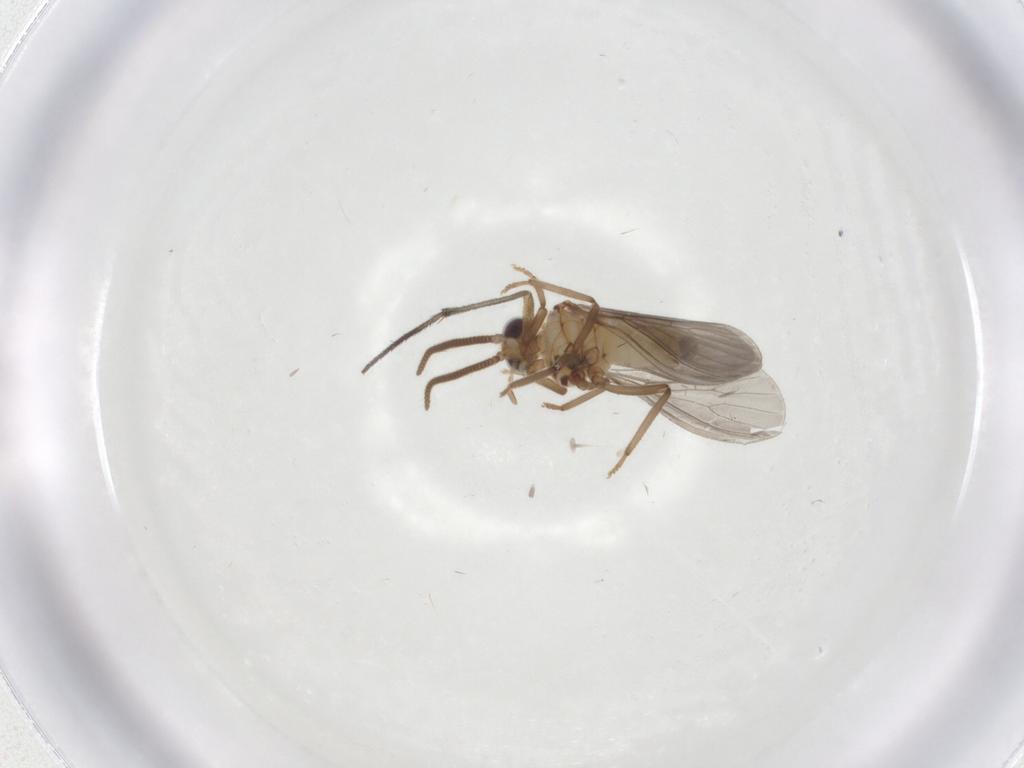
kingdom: Animalia
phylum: Arthropoda
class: Insecta
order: Neuroptera
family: Coniopterygidae
